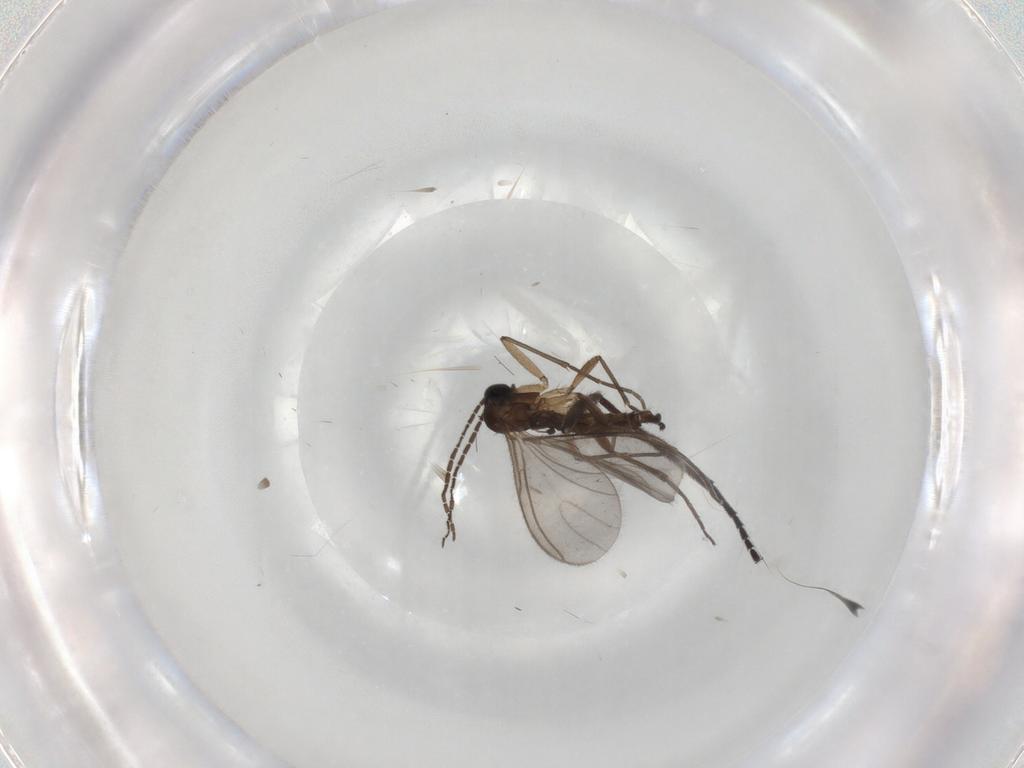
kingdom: Animalia
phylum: Arthropoda
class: Insecta
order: Diptera
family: Sciaridae
